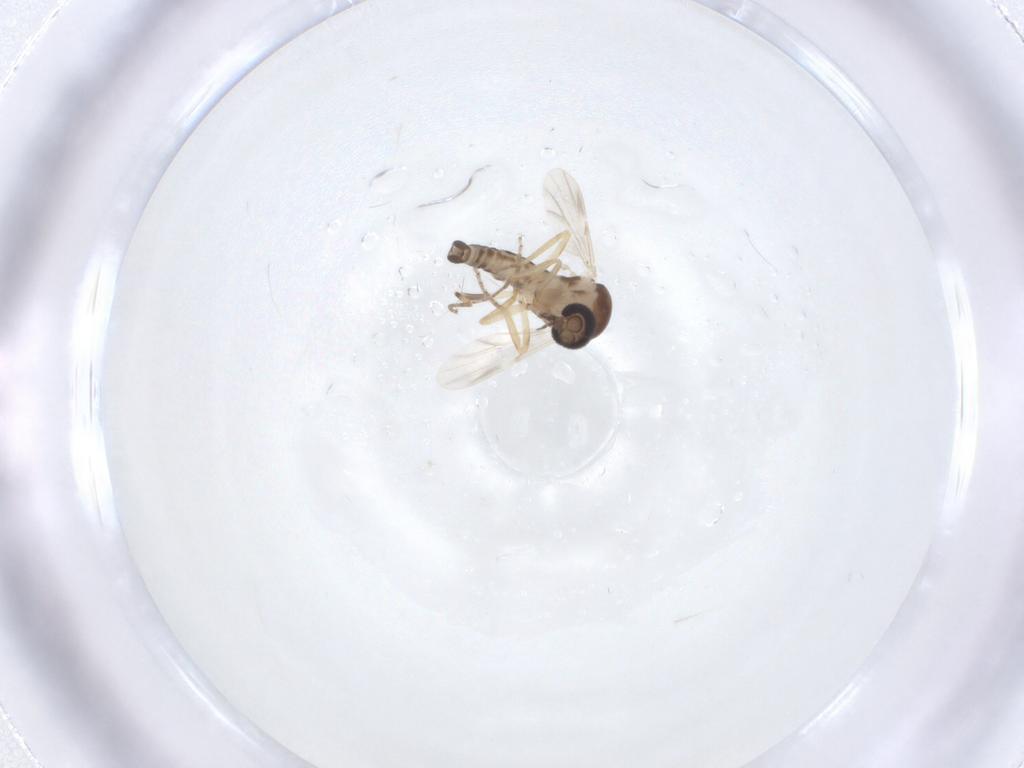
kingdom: Animalia
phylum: Arthropoda
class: Insecta
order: Diptera
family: Ceratopogonidae
